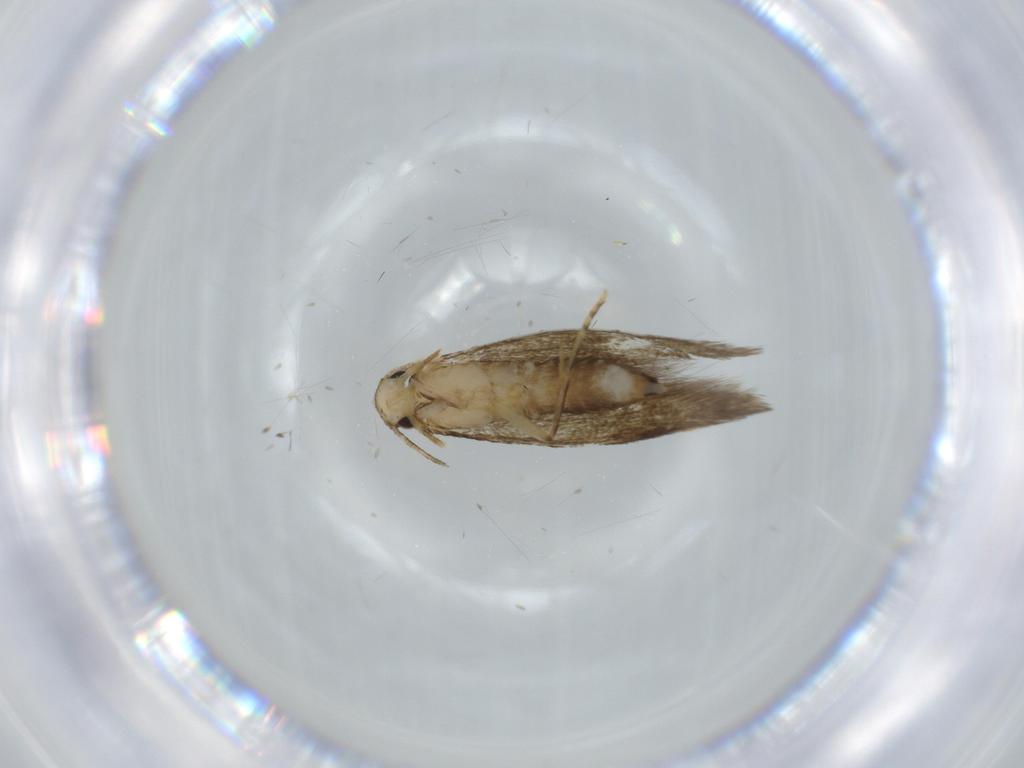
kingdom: Animalia
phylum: Arthropoda
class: Insecta
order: Lepidoptera
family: Tineidae
